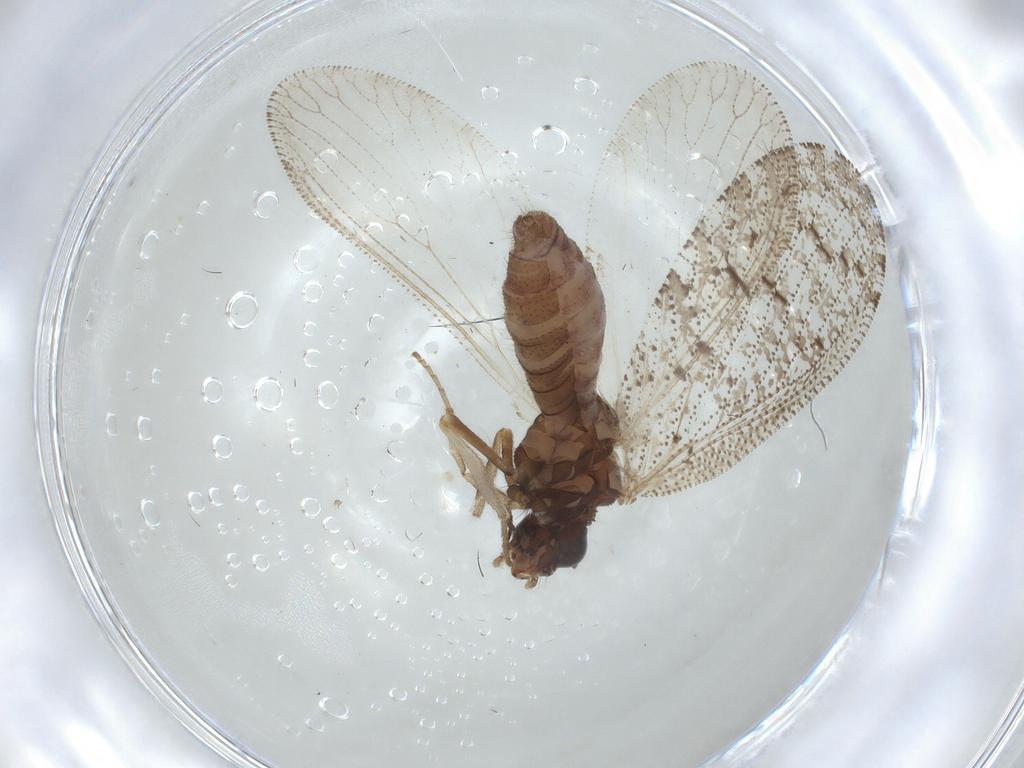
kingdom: Animalia
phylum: Arthropoda
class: Insecta
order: Neuroptera
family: Hemerobiidae
